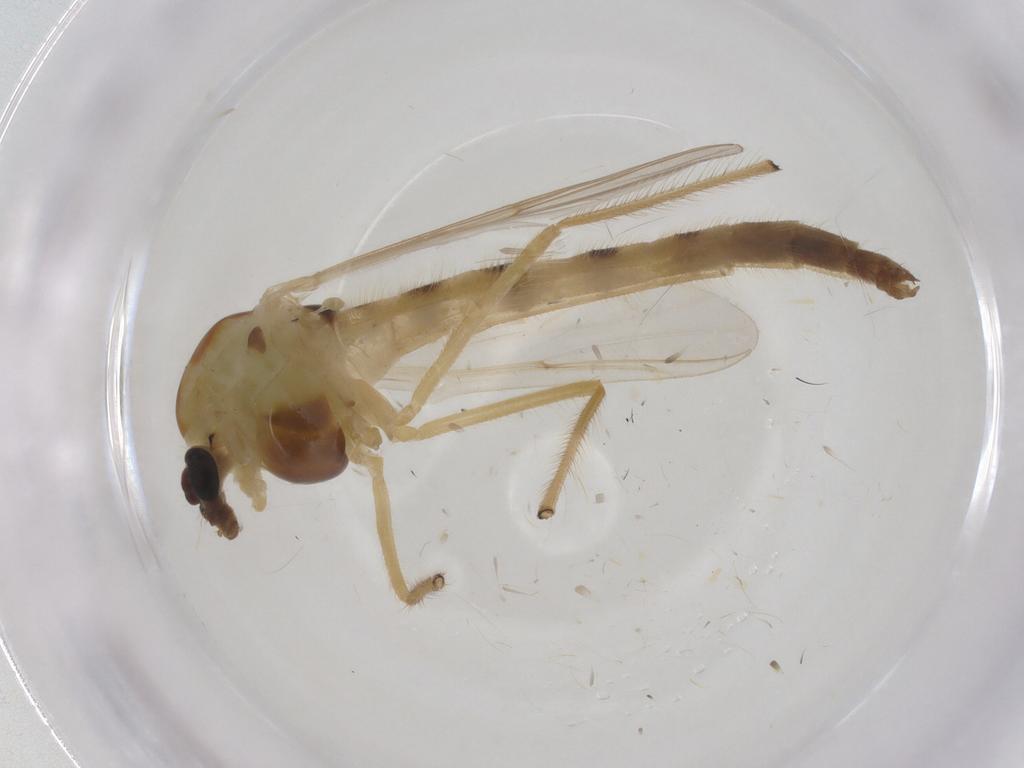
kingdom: Animalia
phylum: Arthropoda
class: Insecta
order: Diptera
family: Chironomidae
